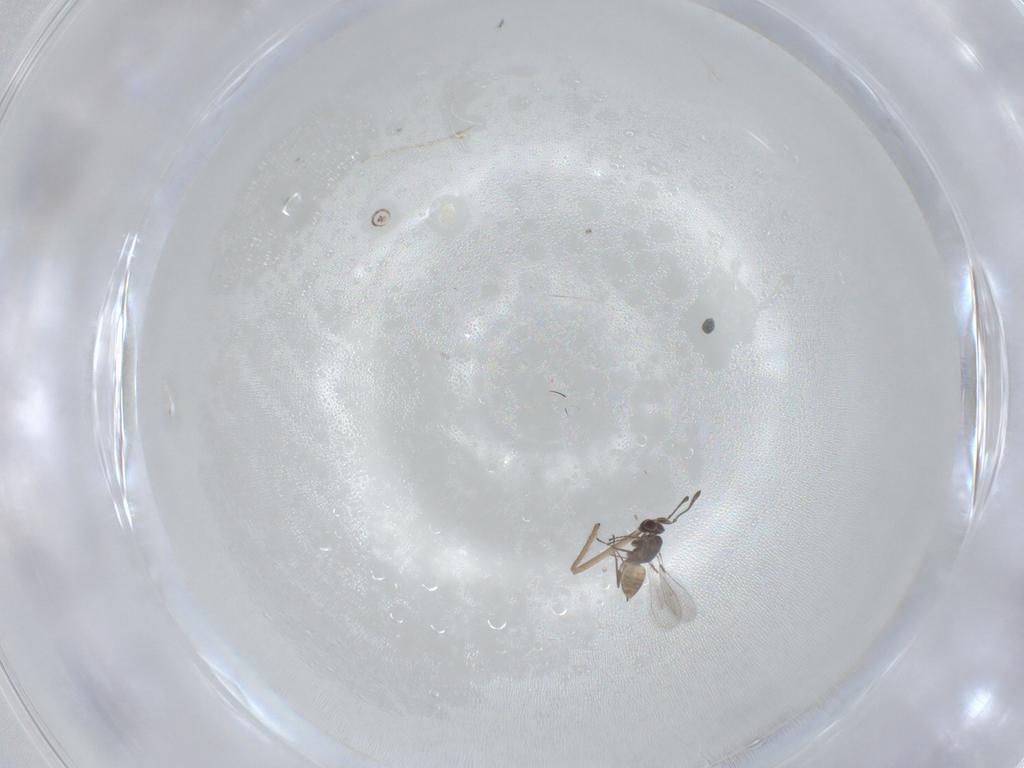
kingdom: Animalia
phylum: Arthropoda
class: Insecta
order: Hymenoptera
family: Mymaridae
